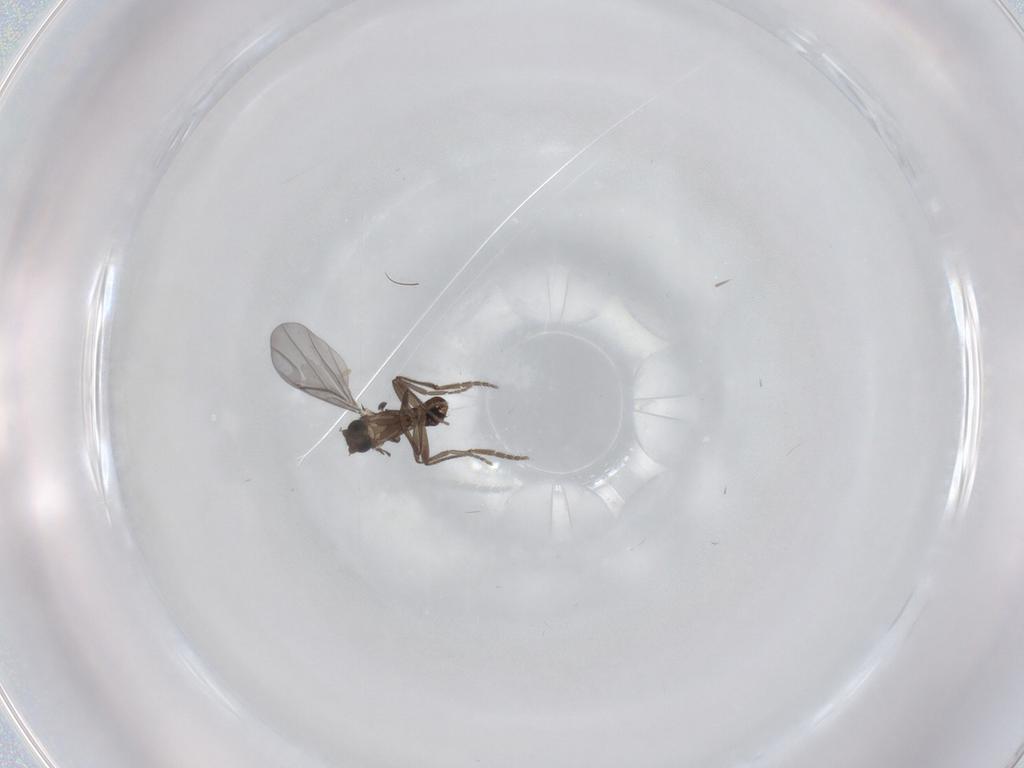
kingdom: Animalia
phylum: Arthropoda
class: Insecta
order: Diptera
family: Phoridae
